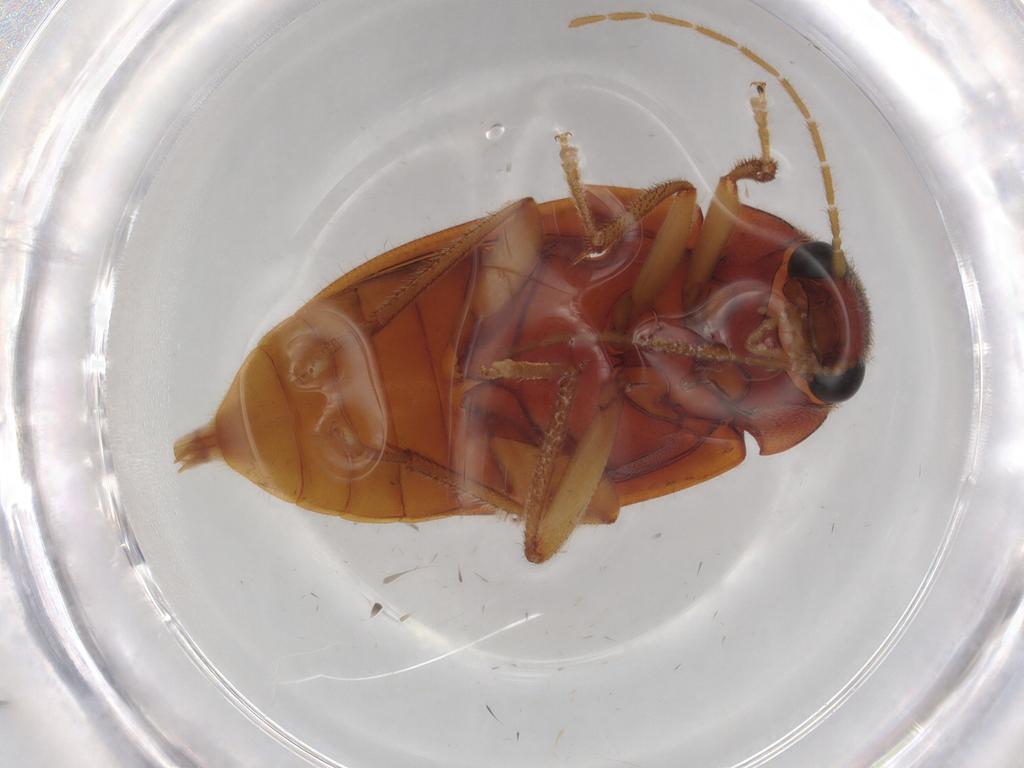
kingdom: Animalia
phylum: Arthropoda
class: Insecta
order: Coleoptera
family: Ptilodactylidae
